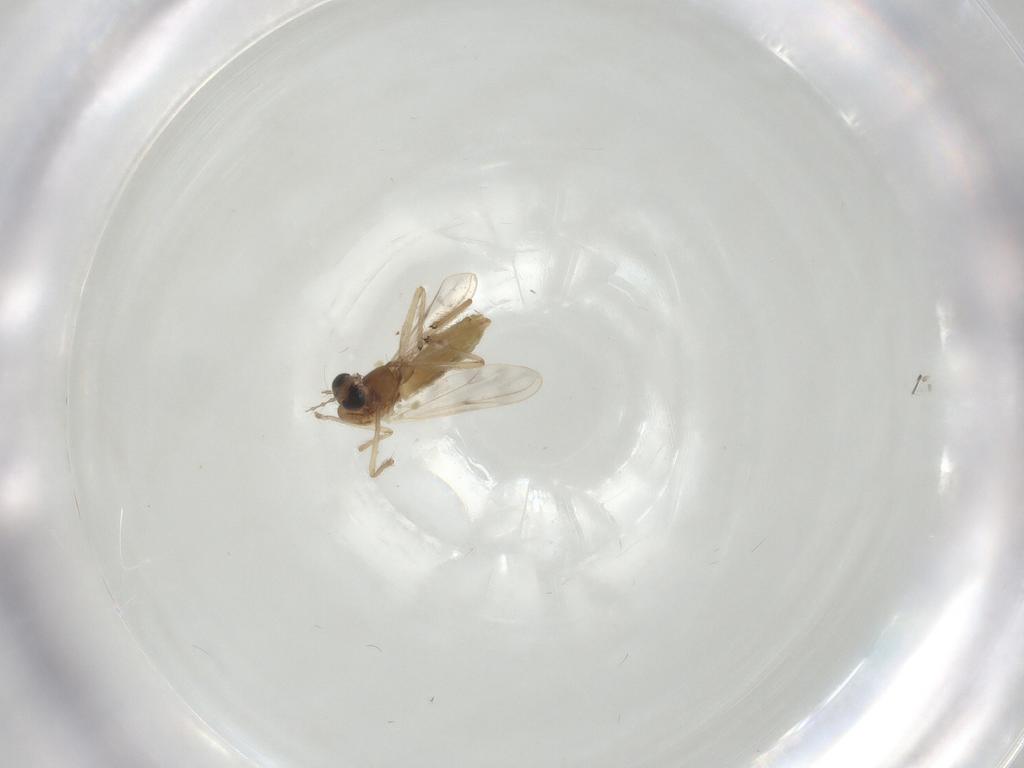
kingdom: Animalia
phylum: Arthropoda
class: Insecta
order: Diptera
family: Chironomidae
